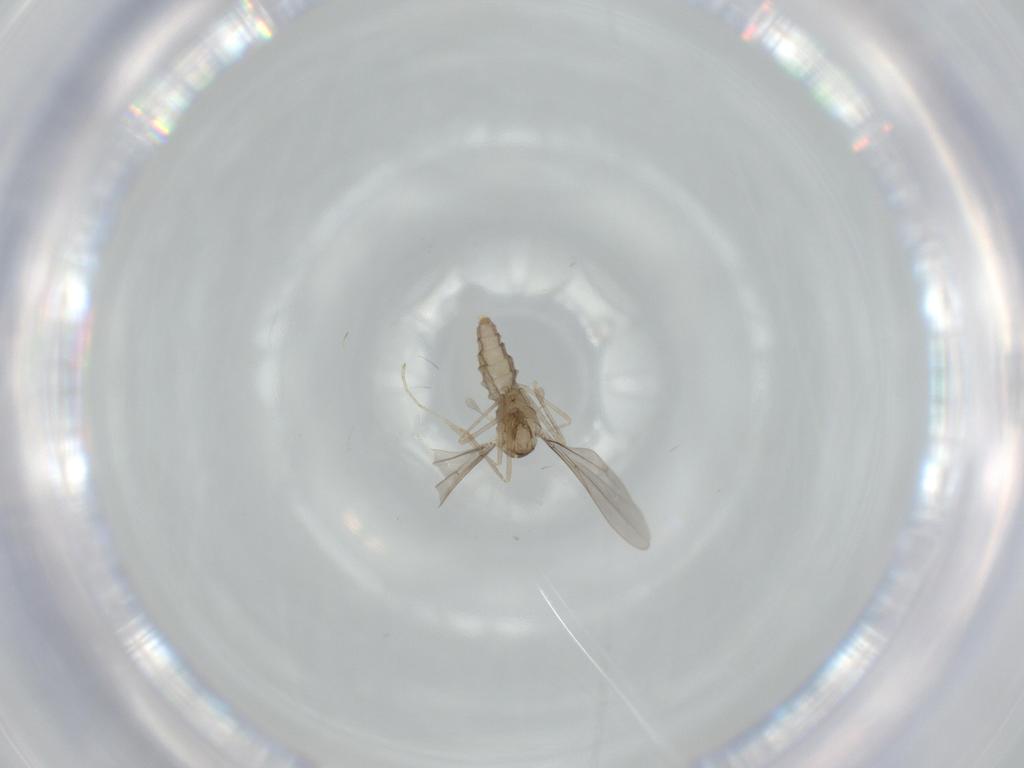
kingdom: Animalia
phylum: Arthropoda
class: Insecta
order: Diptera
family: Cecidomyiidae
